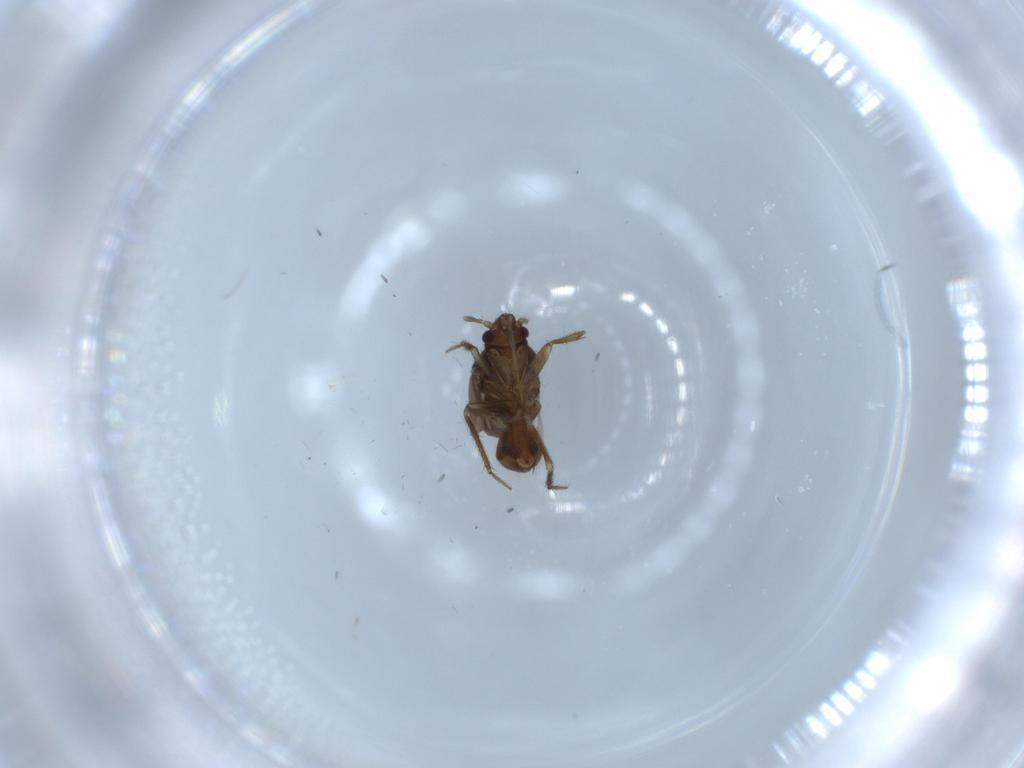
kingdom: Animalia
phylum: Arthropoda
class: Insecta
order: Hemiptera
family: Ceratocombidae
